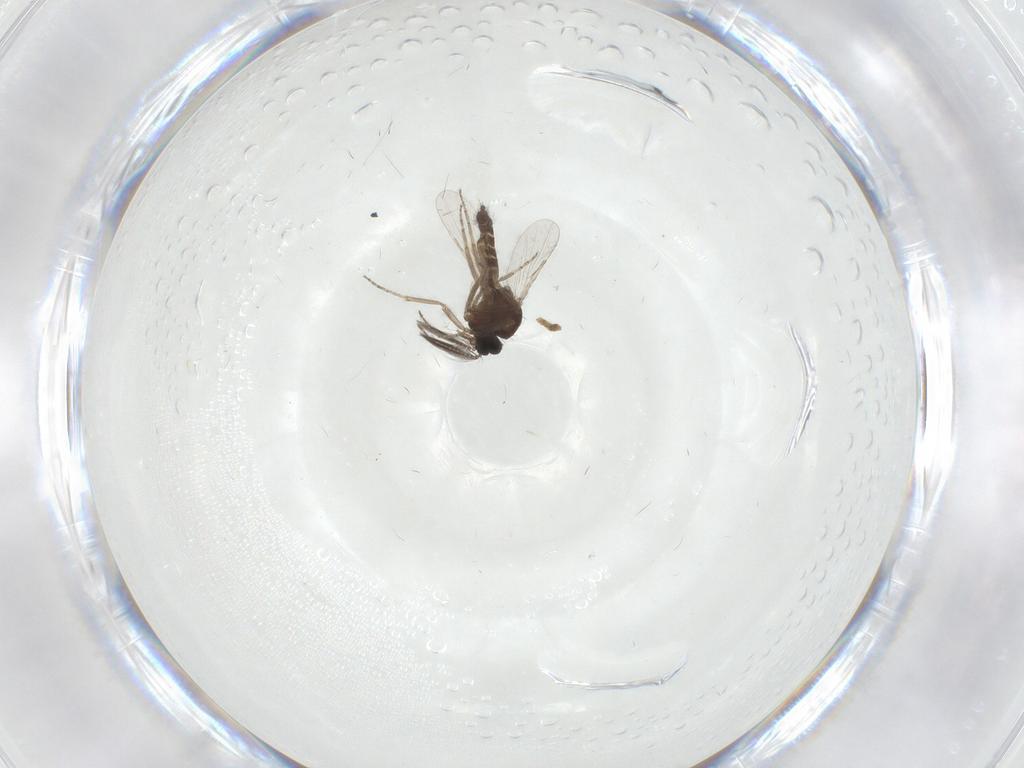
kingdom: Animalia
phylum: Arthropoda
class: Insecta
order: Diptera
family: Ceratopogonidae
